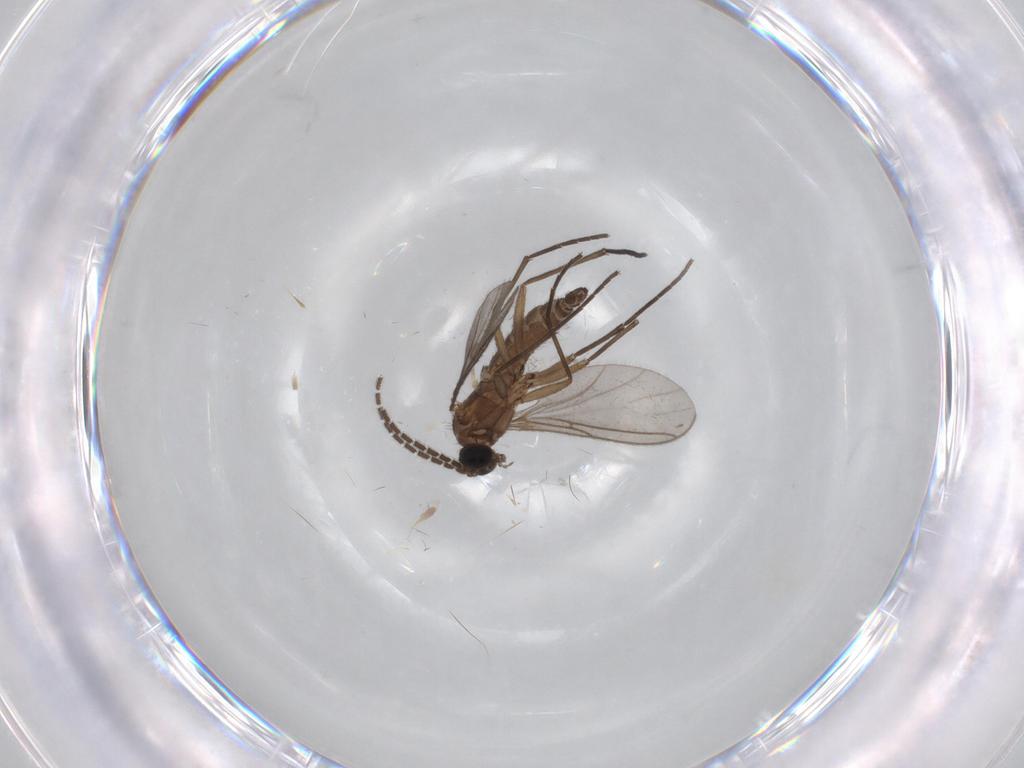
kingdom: Animalia
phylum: Arthropoda
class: Insecta
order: Diptera
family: Sciaridae
